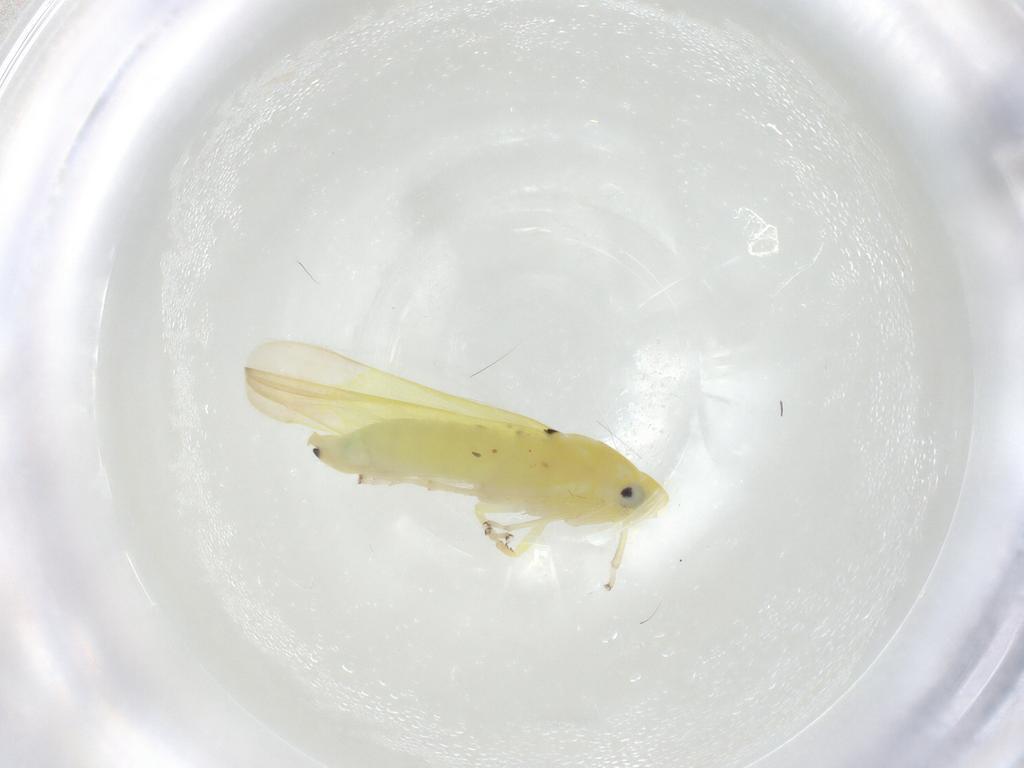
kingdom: Animalia
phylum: Arthropoda
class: Insecta
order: Hemiptera
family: Cicadellidae
